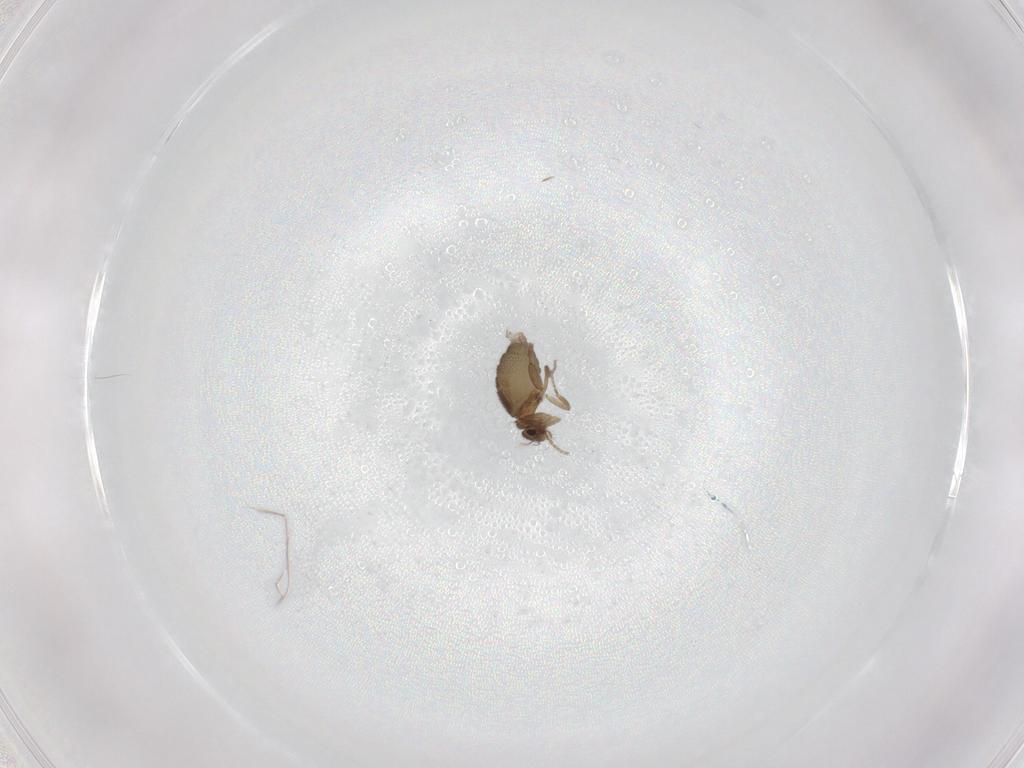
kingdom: Animalia
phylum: Arthropoda
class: Insecta
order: Diptera
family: Phoridae
